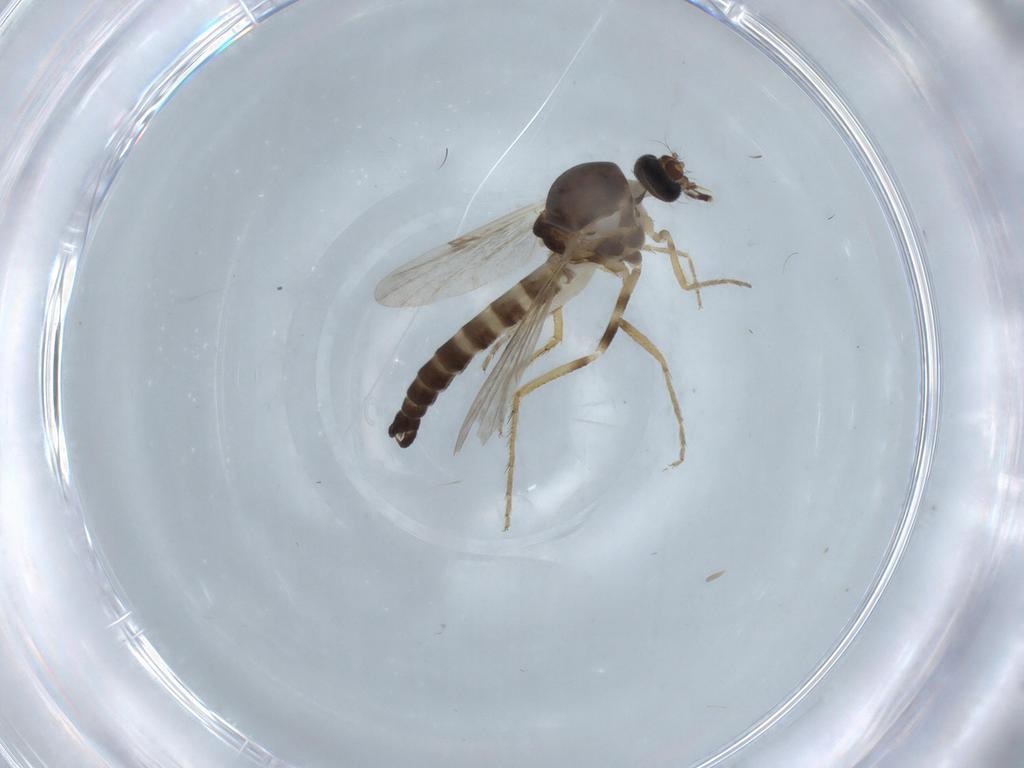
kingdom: Animalia
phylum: Arthropoda
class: Insecta
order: Diptera
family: Ceratopogonidae
